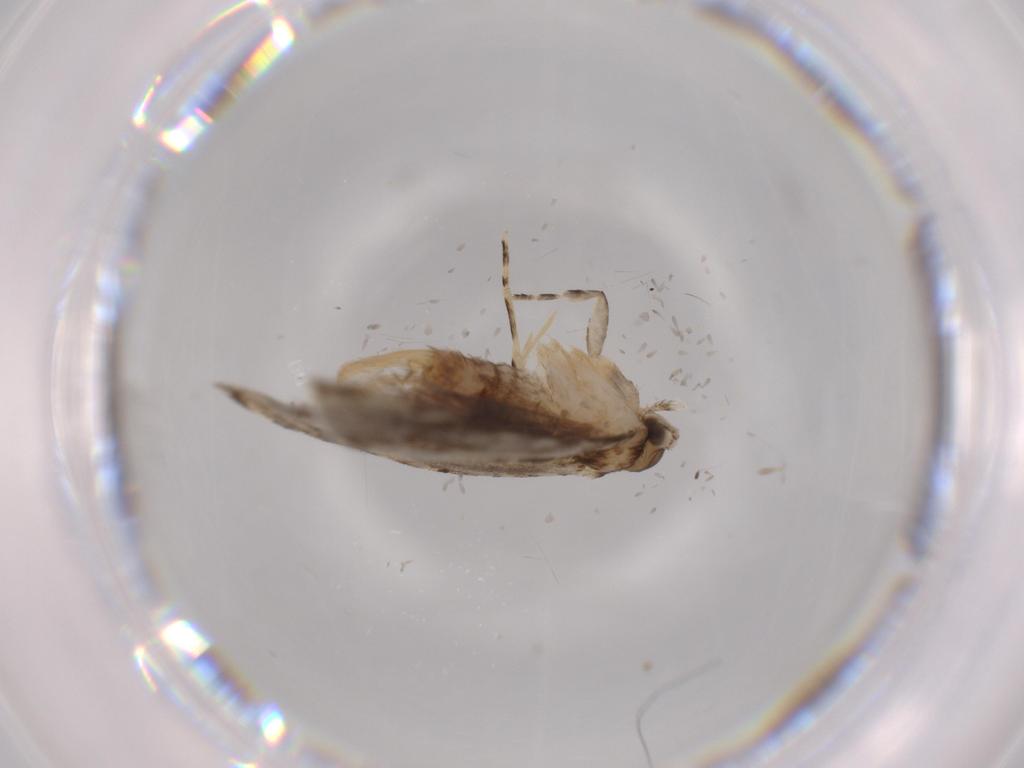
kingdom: Animalia
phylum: Arthropoda
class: Insecta
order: Lepidoptera
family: Tineidae
